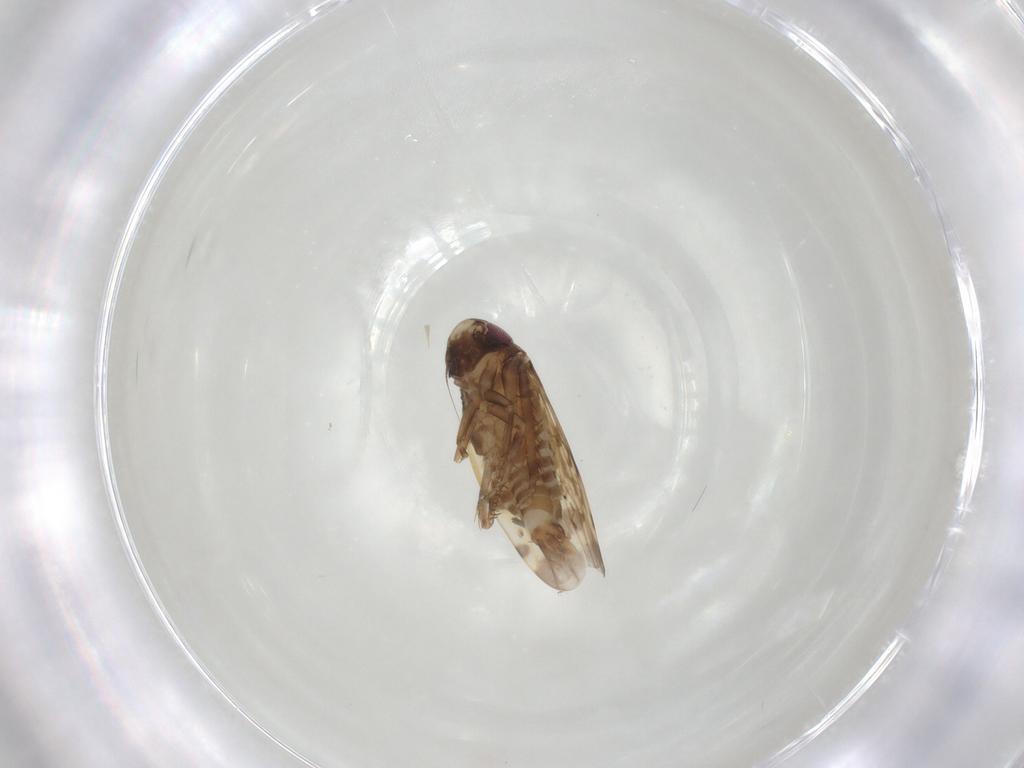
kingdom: Animalia
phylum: Arthropoda
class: Insecta
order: Hemiptera
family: Cicadellidae
